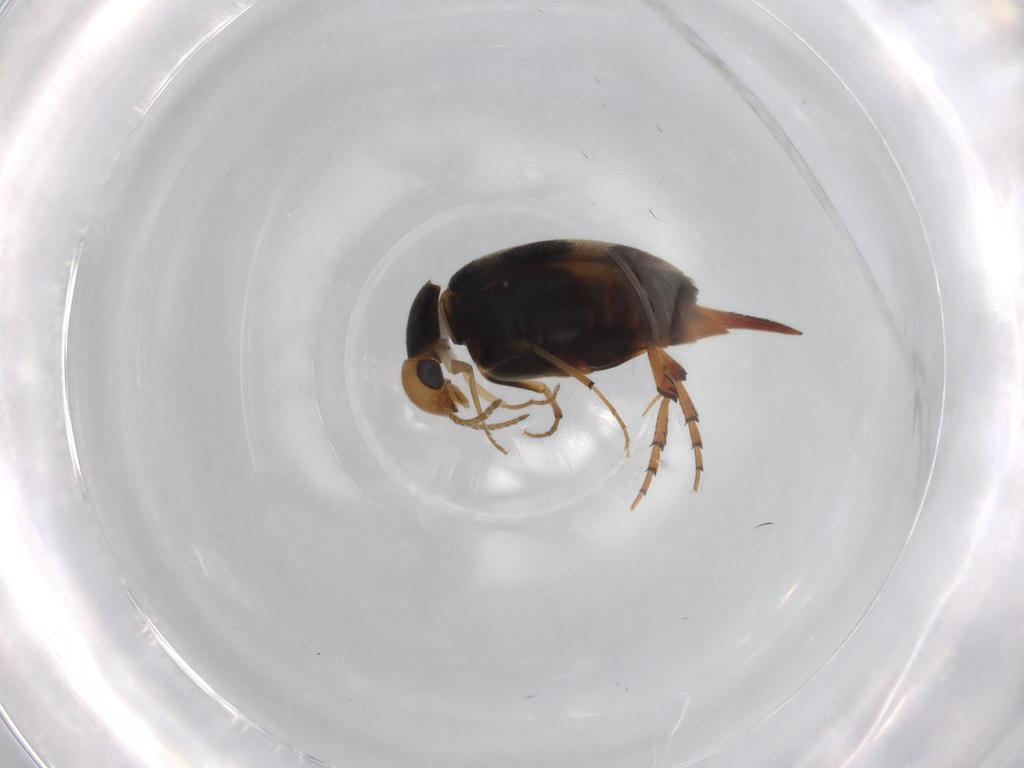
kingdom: Animalia
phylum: Arthropoda
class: Insecta
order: Coleoptera
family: Mordellidae
